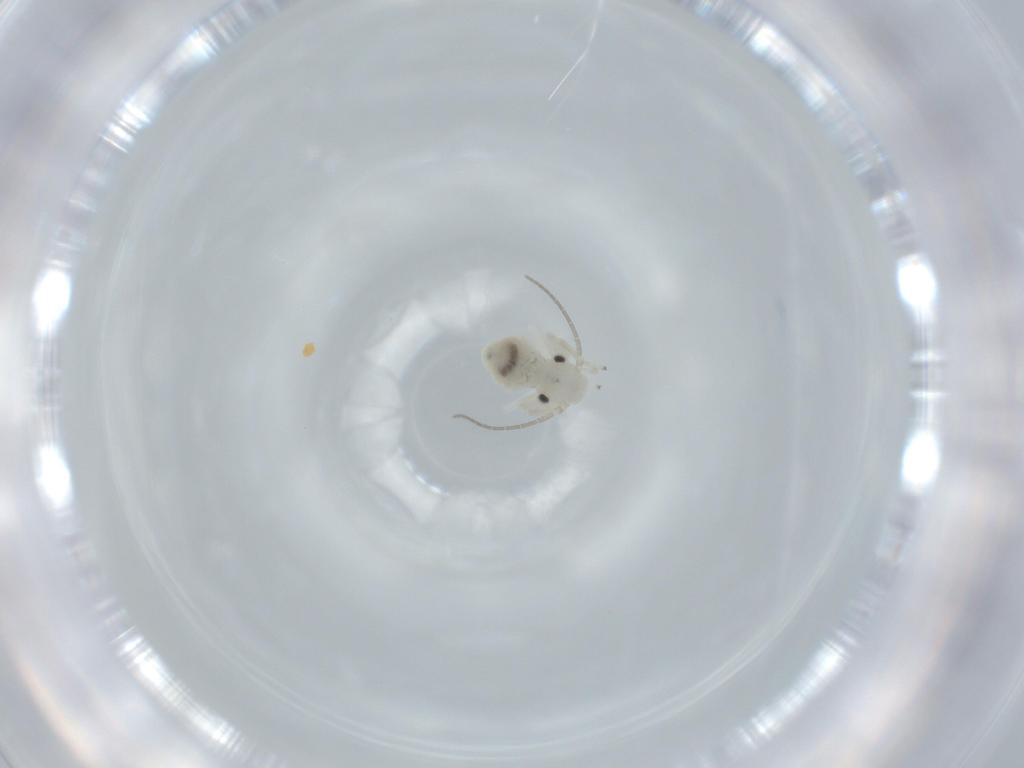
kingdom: Animalia
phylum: Arthropoda
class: Insecta
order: Psocodea
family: Caeciliusidae
